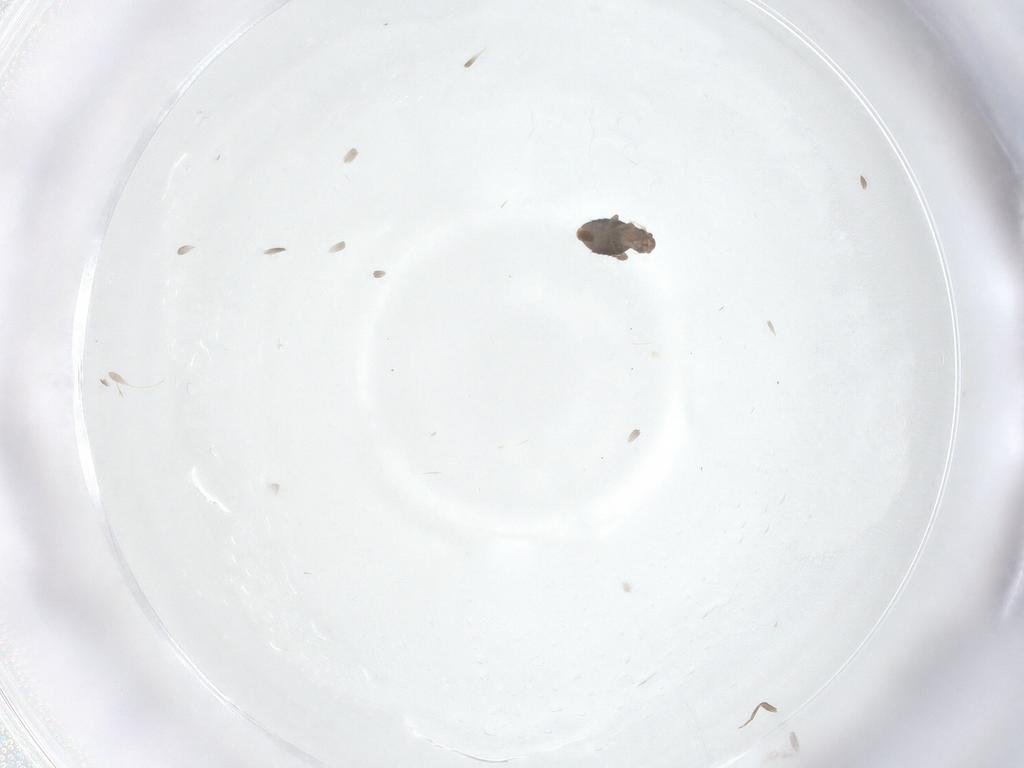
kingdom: Animalia
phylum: Arthropoda
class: Insecta
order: Diptera
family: Phoridae
